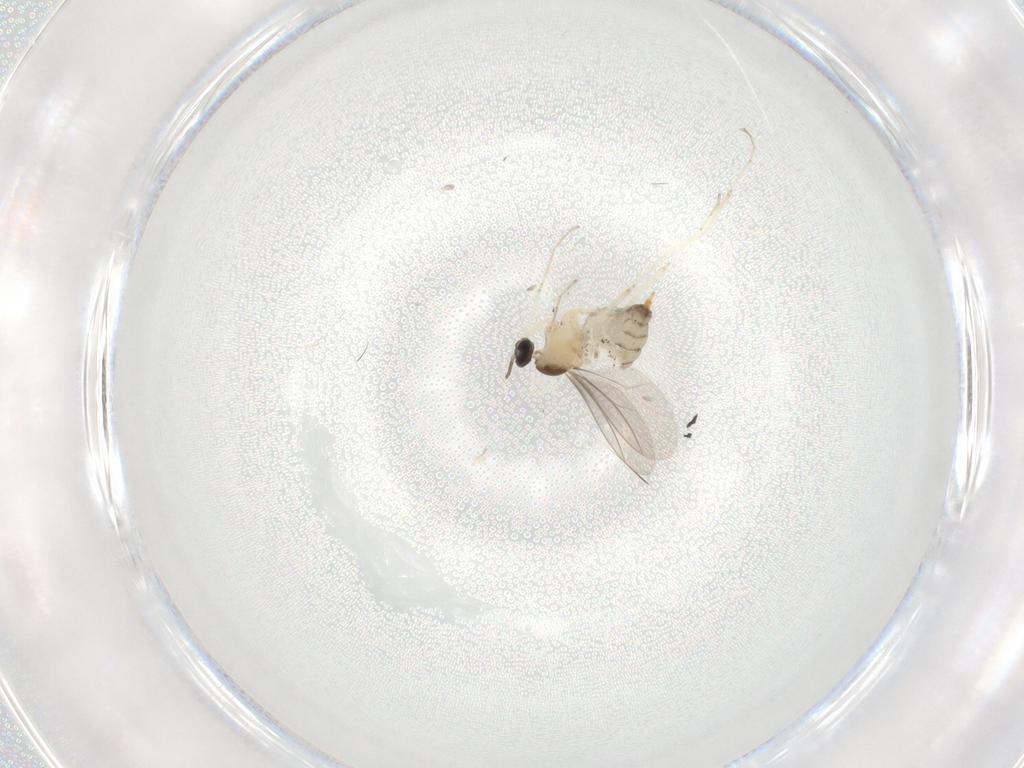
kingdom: Animalia
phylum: Arthropoda
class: Insecta
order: Diptera
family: Cecidomyiidae
